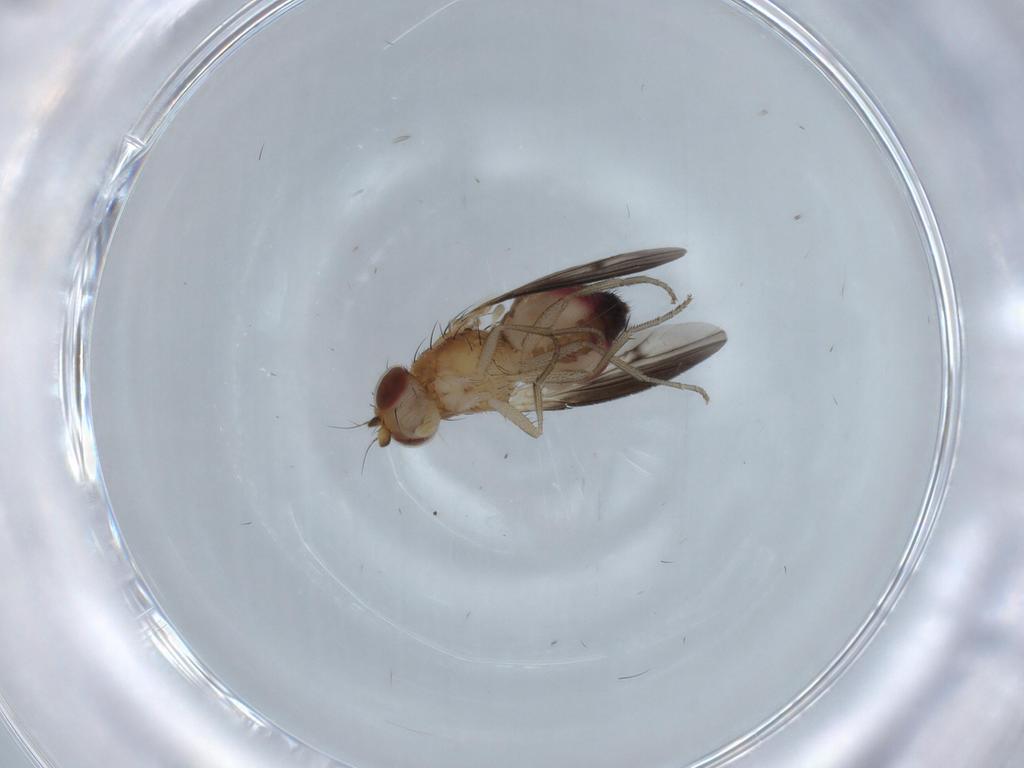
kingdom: Animalia
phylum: Arthropoda
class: Insecta
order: Diptera
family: Heleomyzidae
